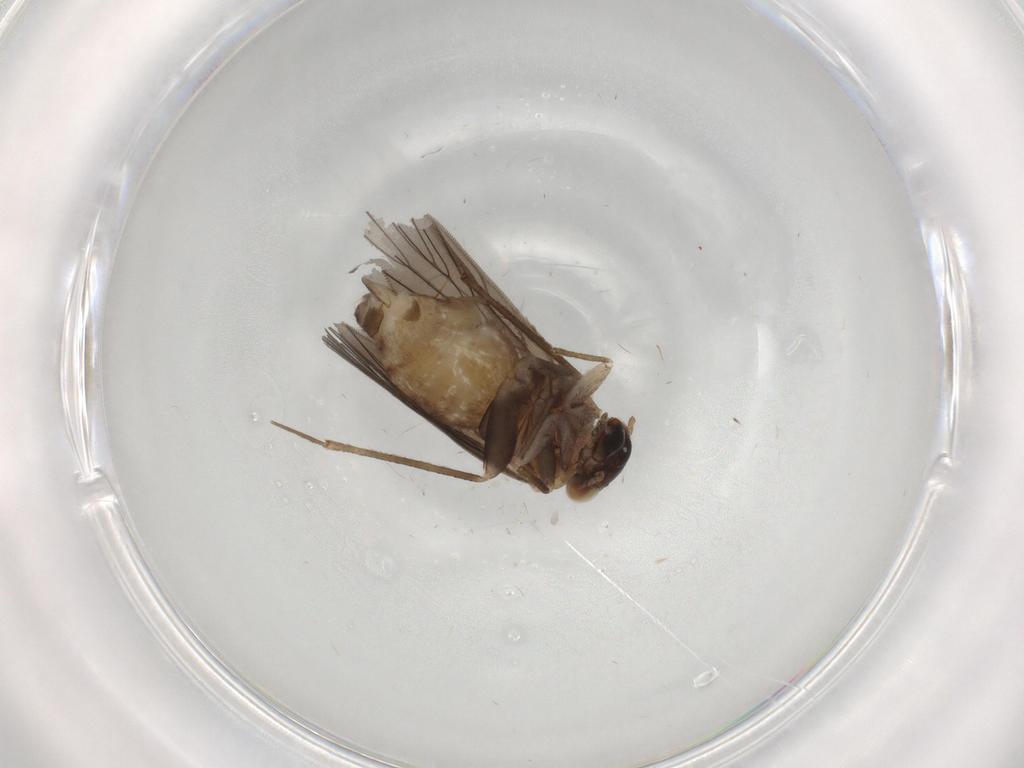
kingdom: Animalia
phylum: Arthropoda
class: Insecta
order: Psocodea
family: Lepidopsocidae
